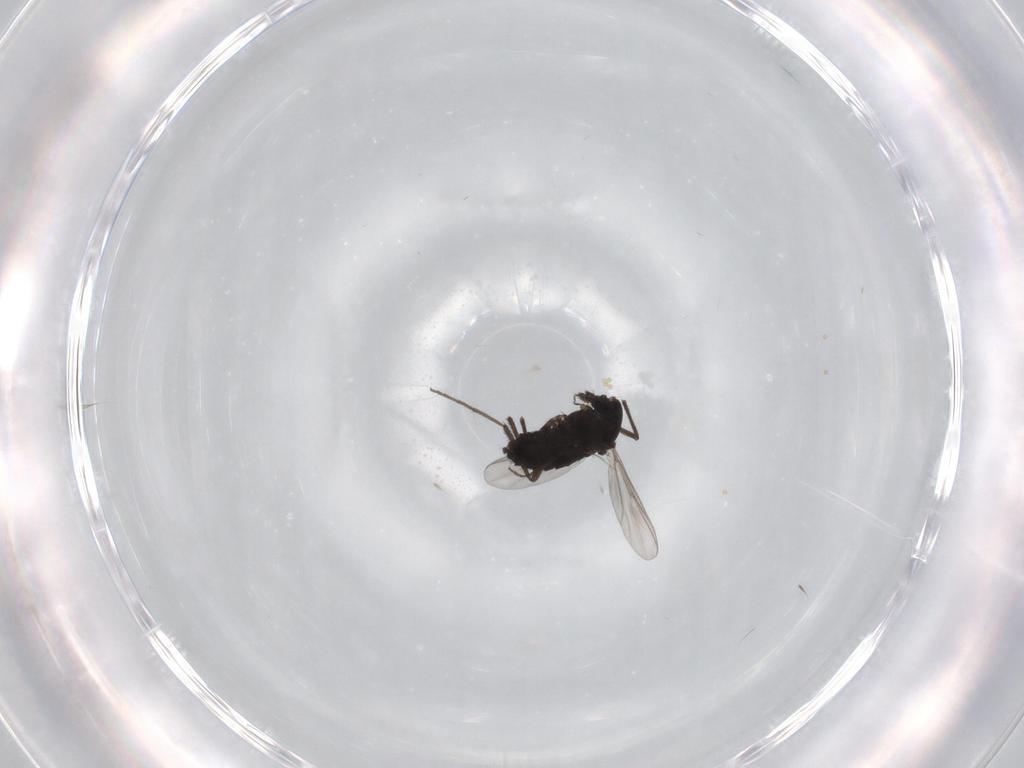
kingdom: Animalia
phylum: Arthropoda
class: Insecta
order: Diptera
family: Chironomidae
